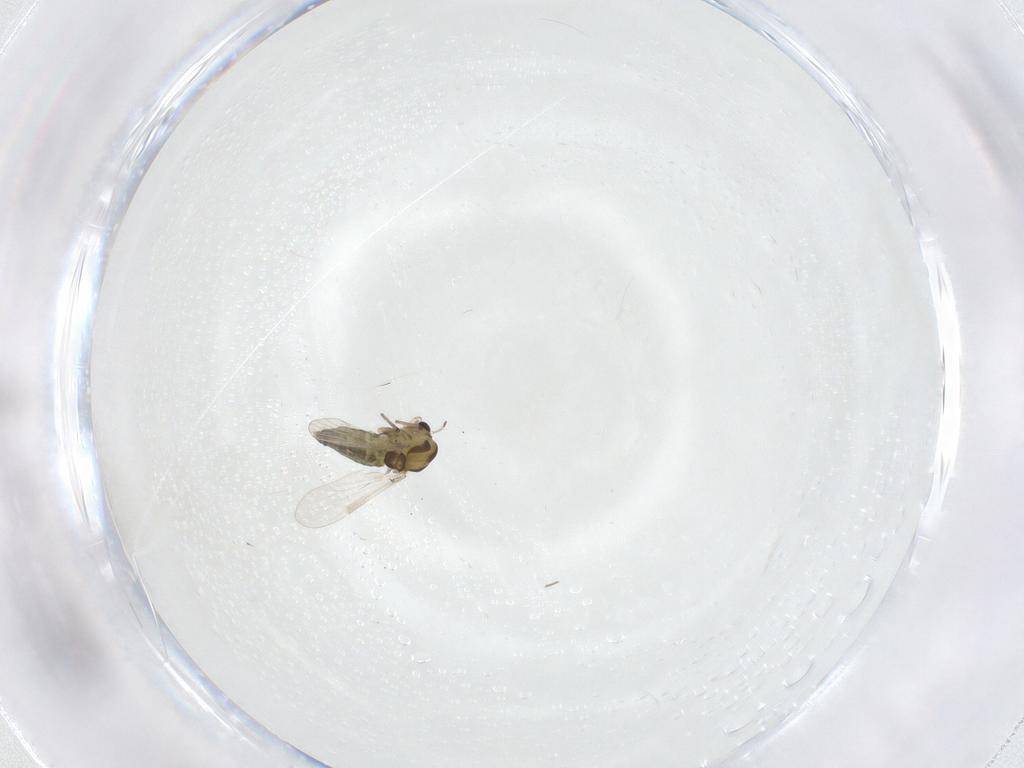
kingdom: Animalia
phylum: Arthropoda
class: Insecta
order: Diptera
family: Chironomidae
